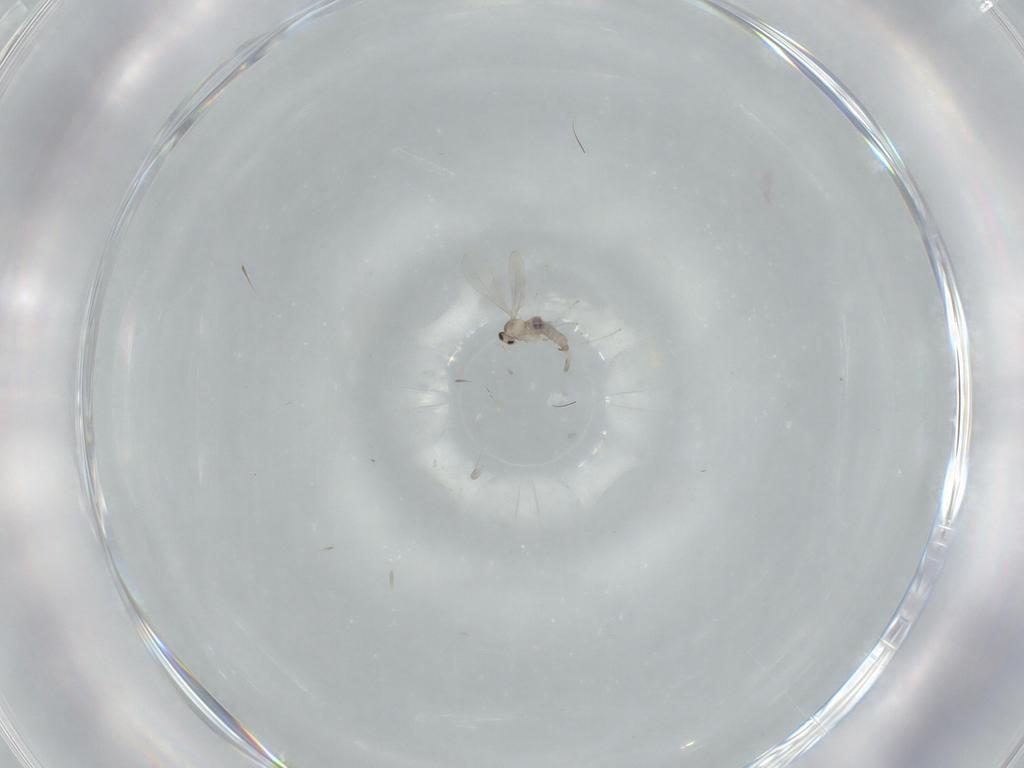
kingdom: Animalia
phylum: Arthropoda
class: Insecta
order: Diptera
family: Cecidomyiidae
